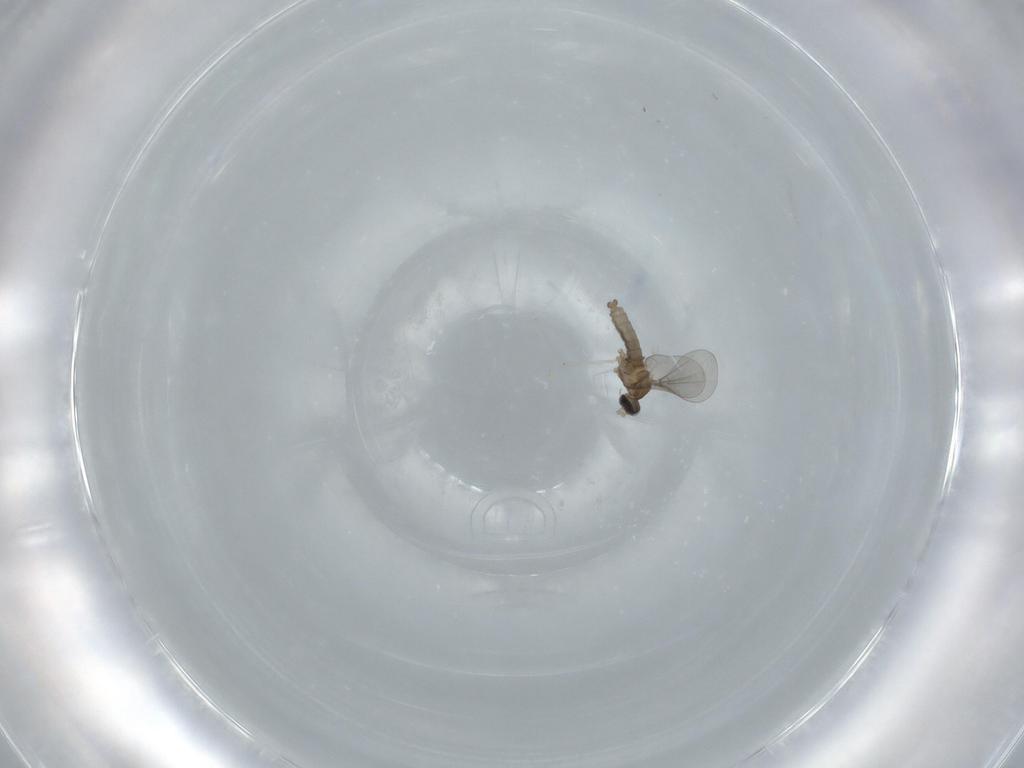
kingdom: Animalia
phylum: Arthropoda
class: Insecta
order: Diptera
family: Cecidomyiidae
